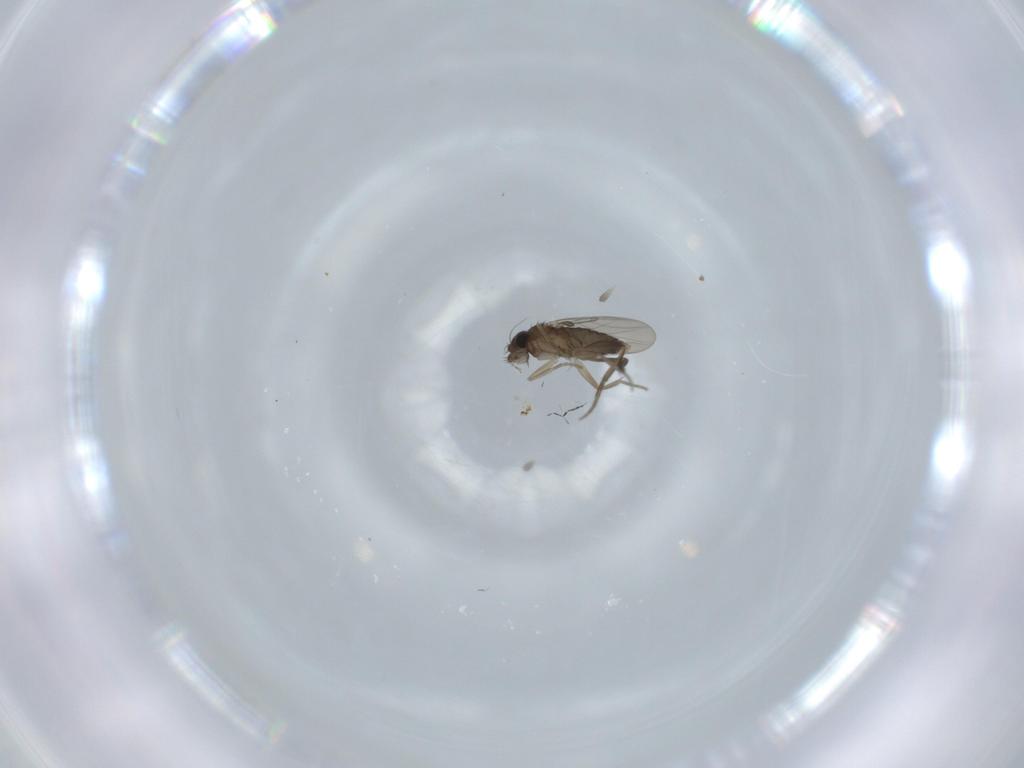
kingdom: Animalia
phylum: Arthropoda
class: Insecta
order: Diptera
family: Phoridae
